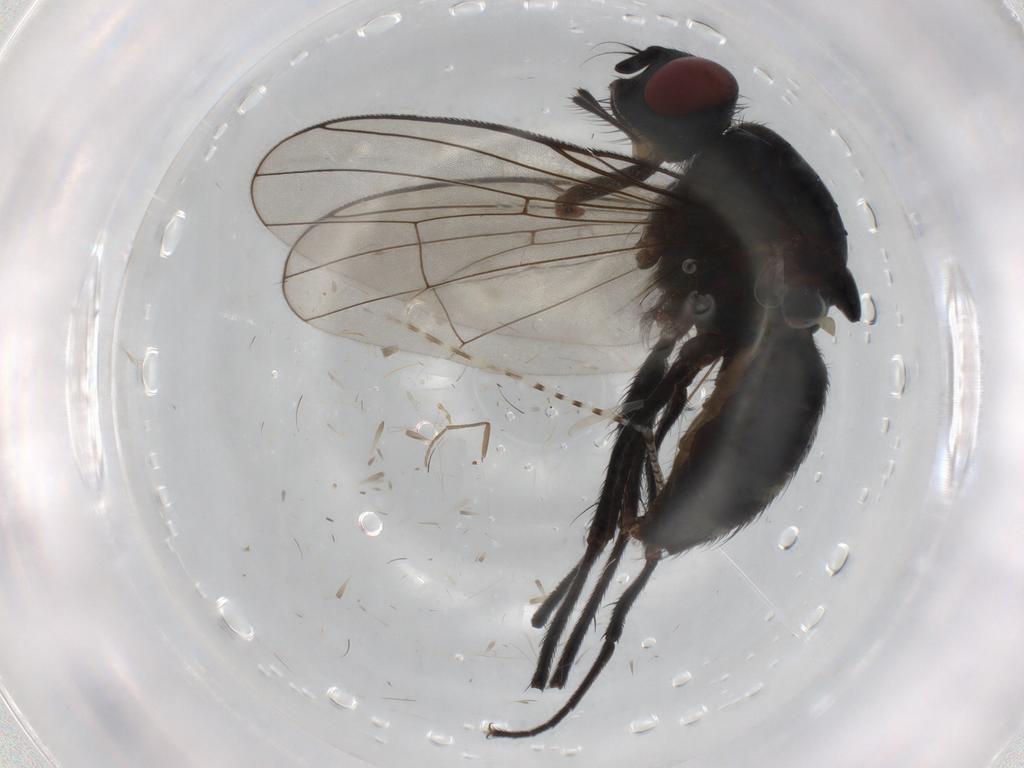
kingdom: Animalia
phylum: Arthropoda
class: Insecta
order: Diptera
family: Muscidae
